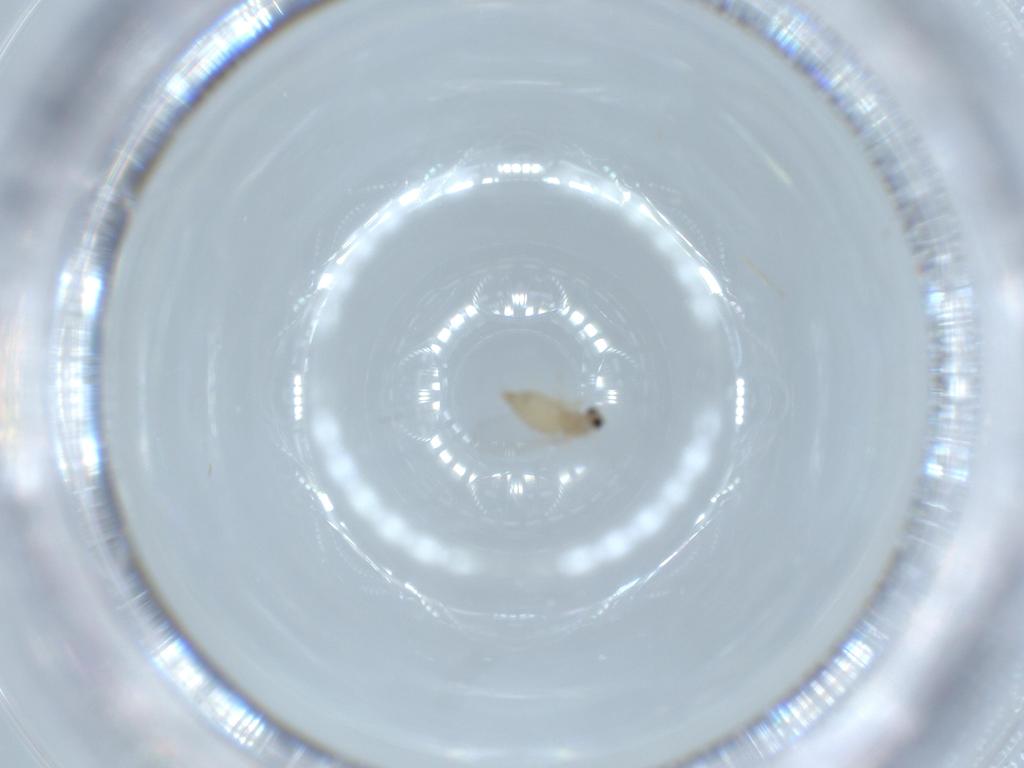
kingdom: Animalia
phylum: Arthropoda
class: Insecta
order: Diptera
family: Cecidomyiidae
